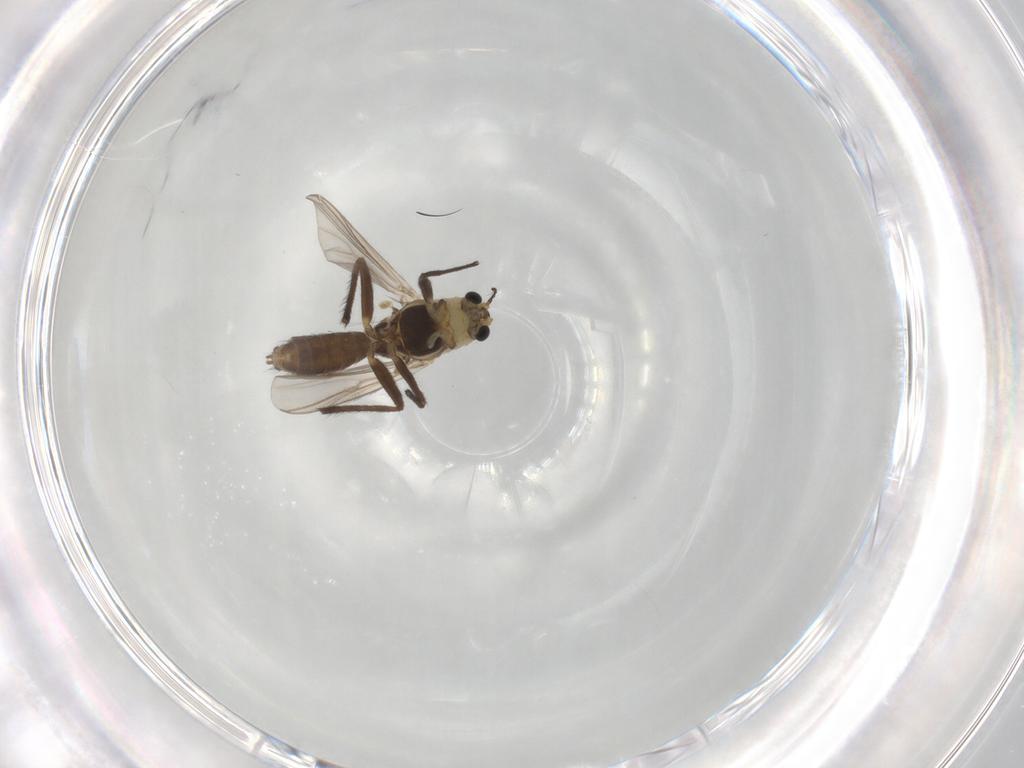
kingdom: Animalia
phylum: Arthropoda
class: Insecta
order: Diptera
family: Chironomidae
